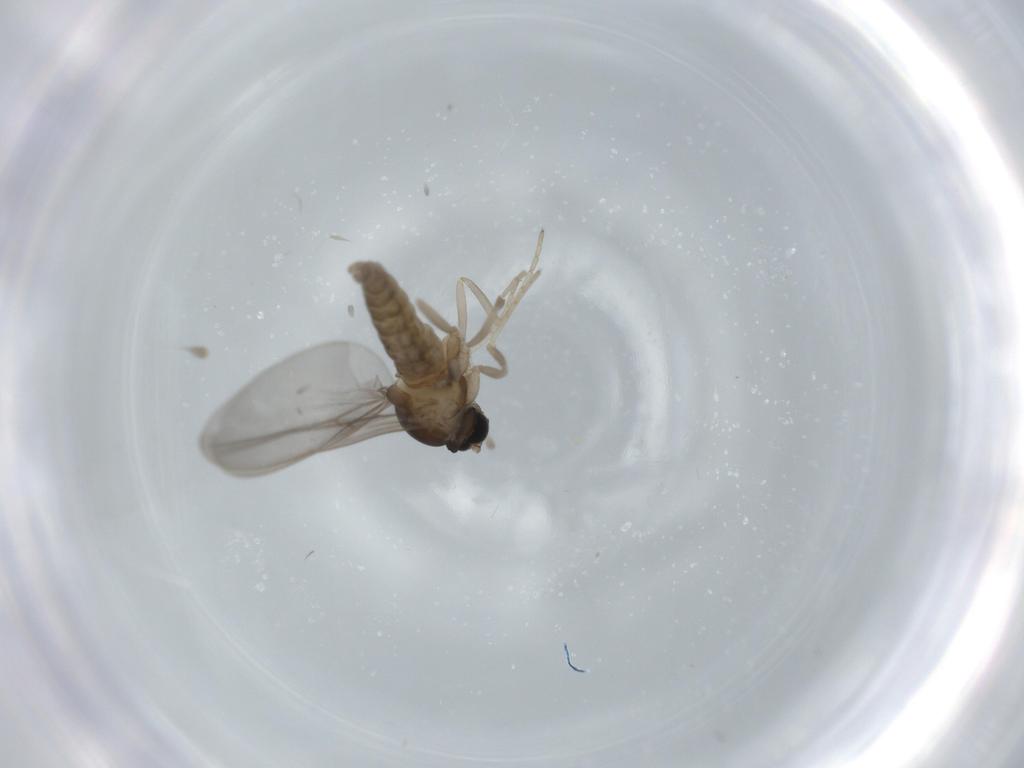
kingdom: Animalia
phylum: Arthropoda
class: Insecta
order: Diptera
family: Cecidomyiidae
